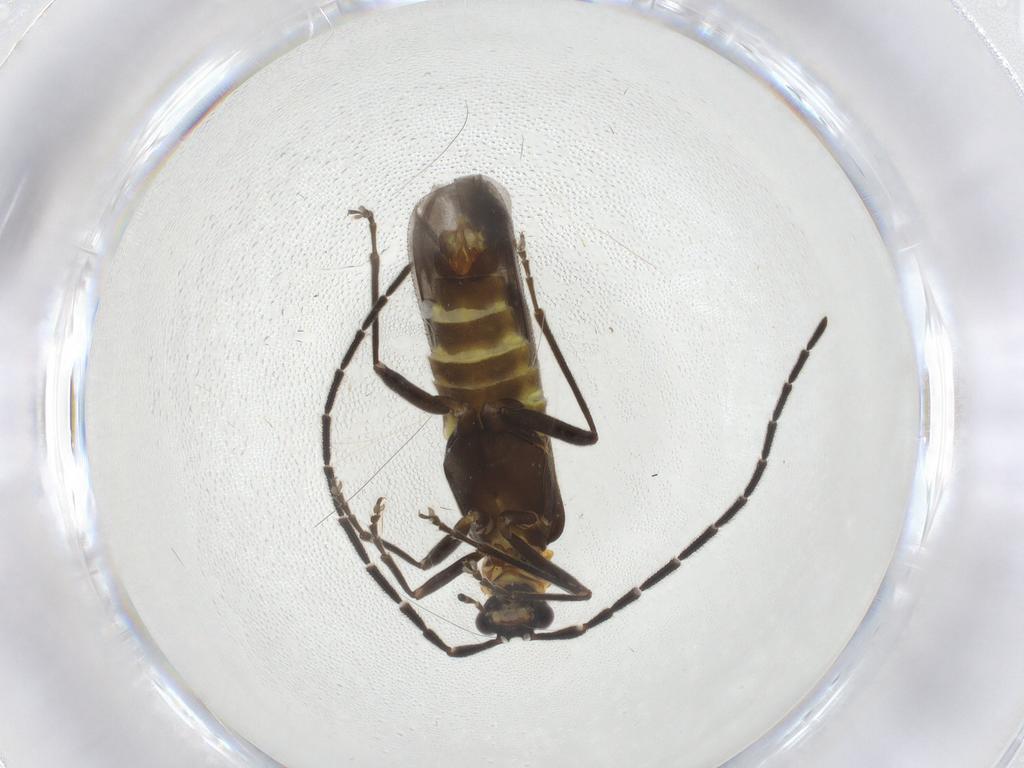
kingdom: Animalia
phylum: Arthropoda
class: Insecta
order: Coleoptera
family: Cantharidae
